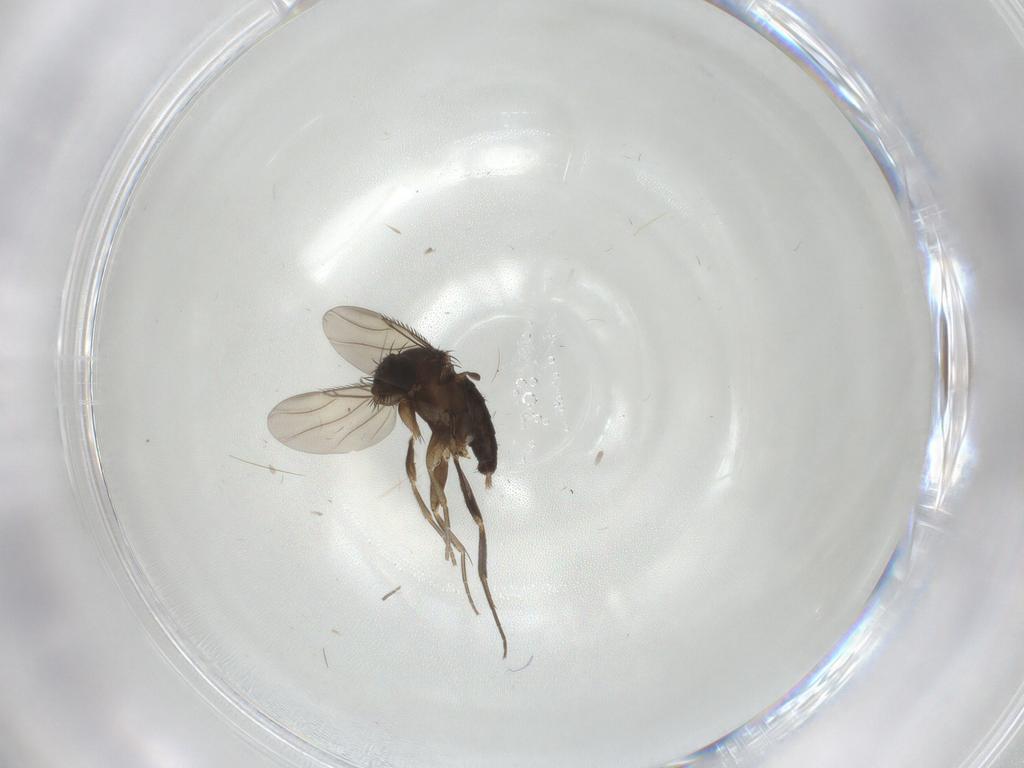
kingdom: Animalia
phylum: Arthropoda
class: Insecta
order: Diptera
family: Phoridae
